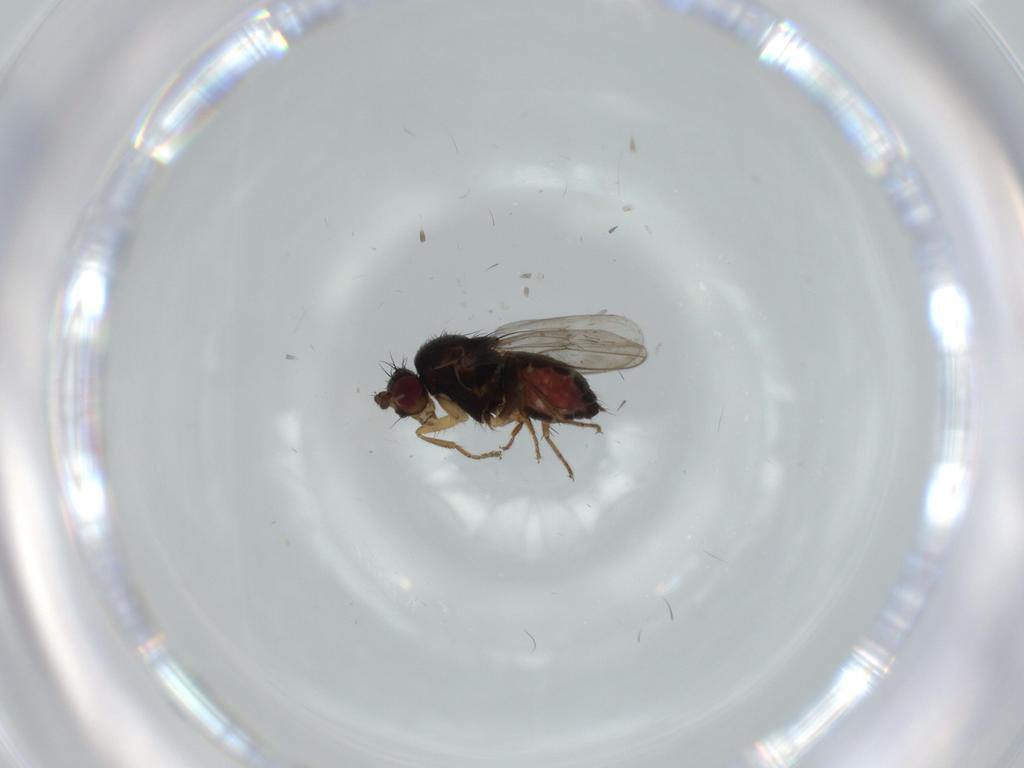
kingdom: Animalia
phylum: Arthropoda
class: Insecta
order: Diptera
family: Sphaeroceridae
